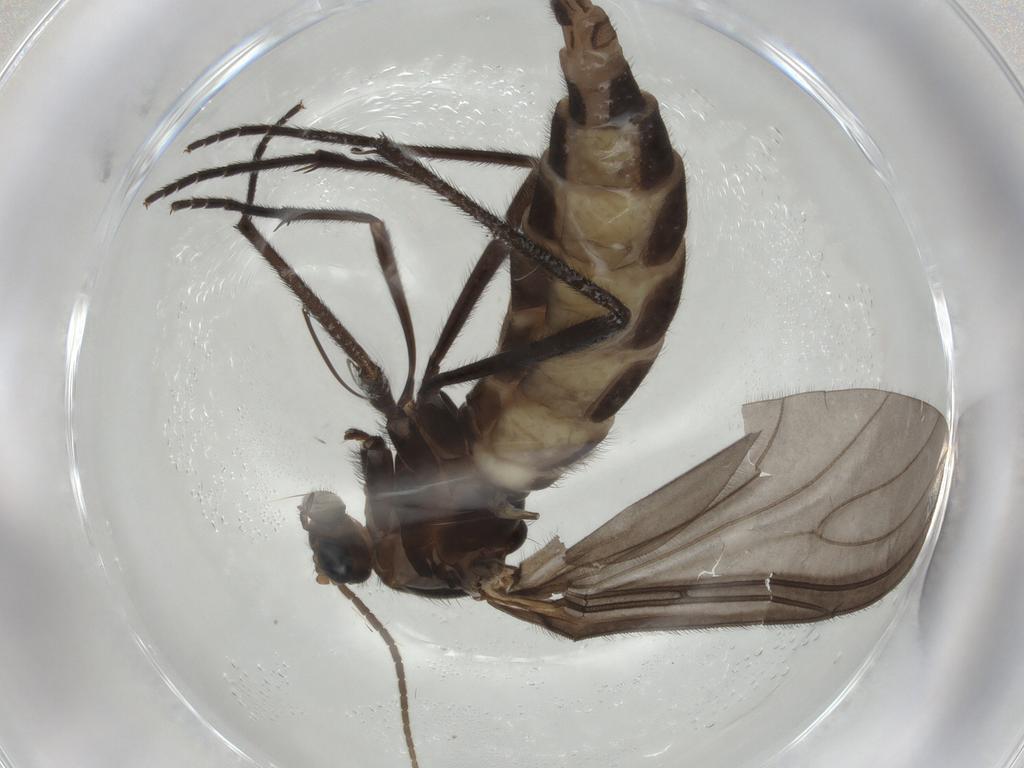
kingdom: Animalia
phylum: Arthropoda
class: Insecta
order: Diptera
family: Sciaridae
